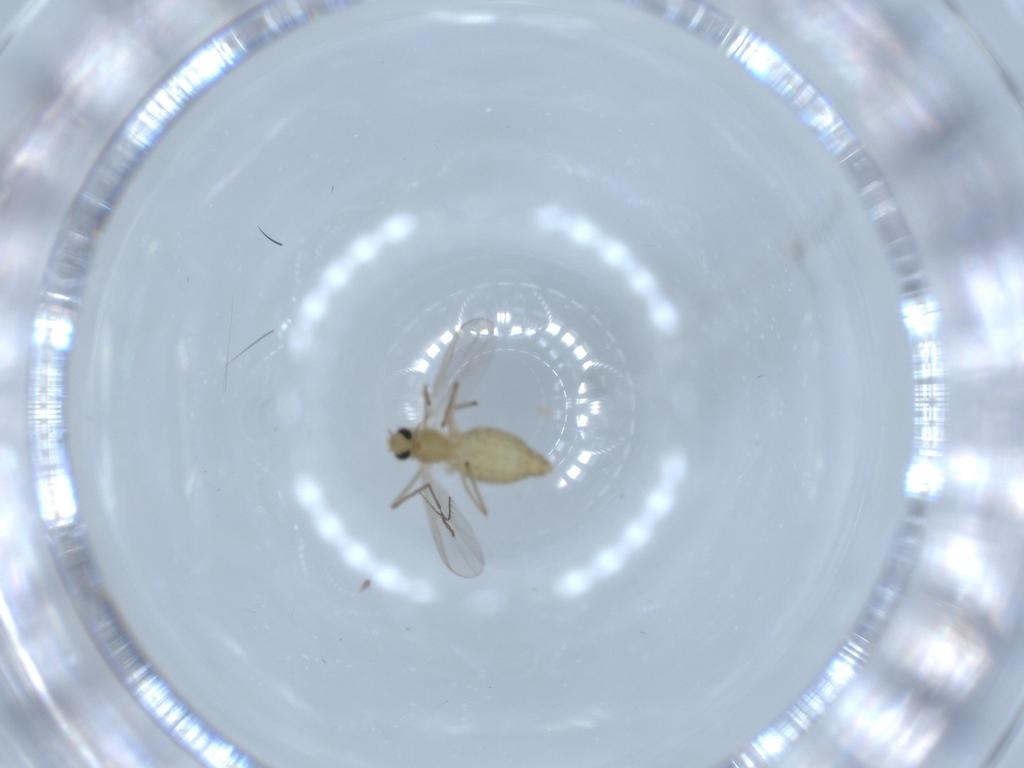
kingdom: Animalia
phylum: Arthropoda
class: Insecta
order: Diptera
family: Chironomidae
